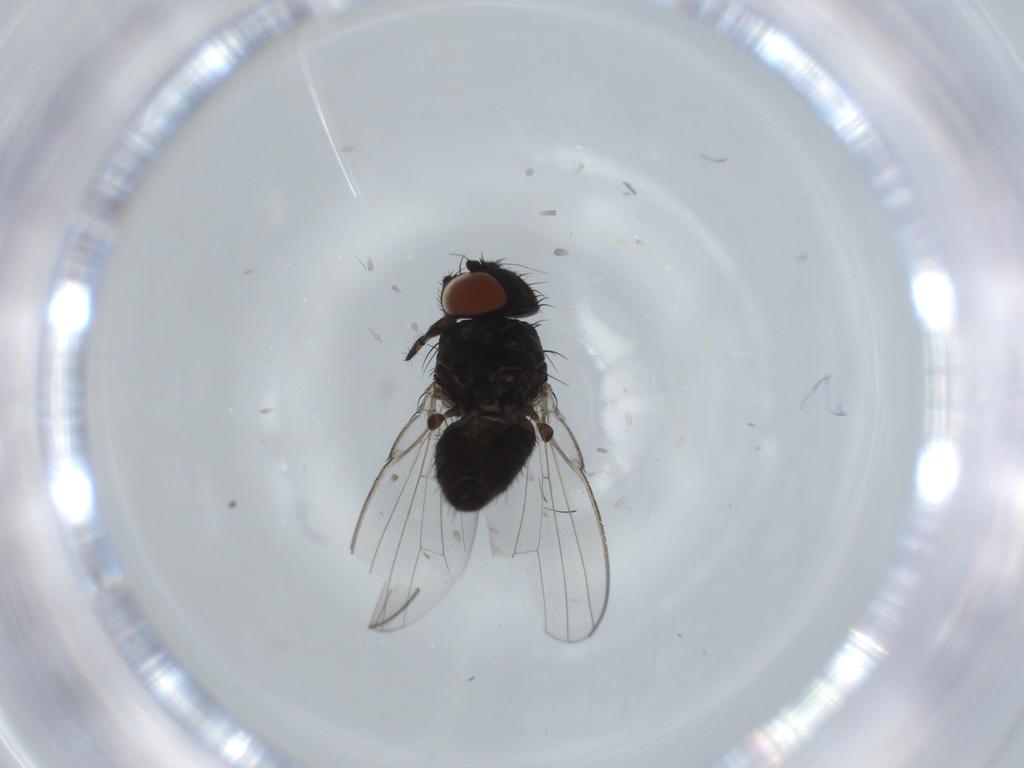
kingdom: Animalia
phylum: Arthropoda
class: Insecta
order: Diptera
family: Milichiidae
